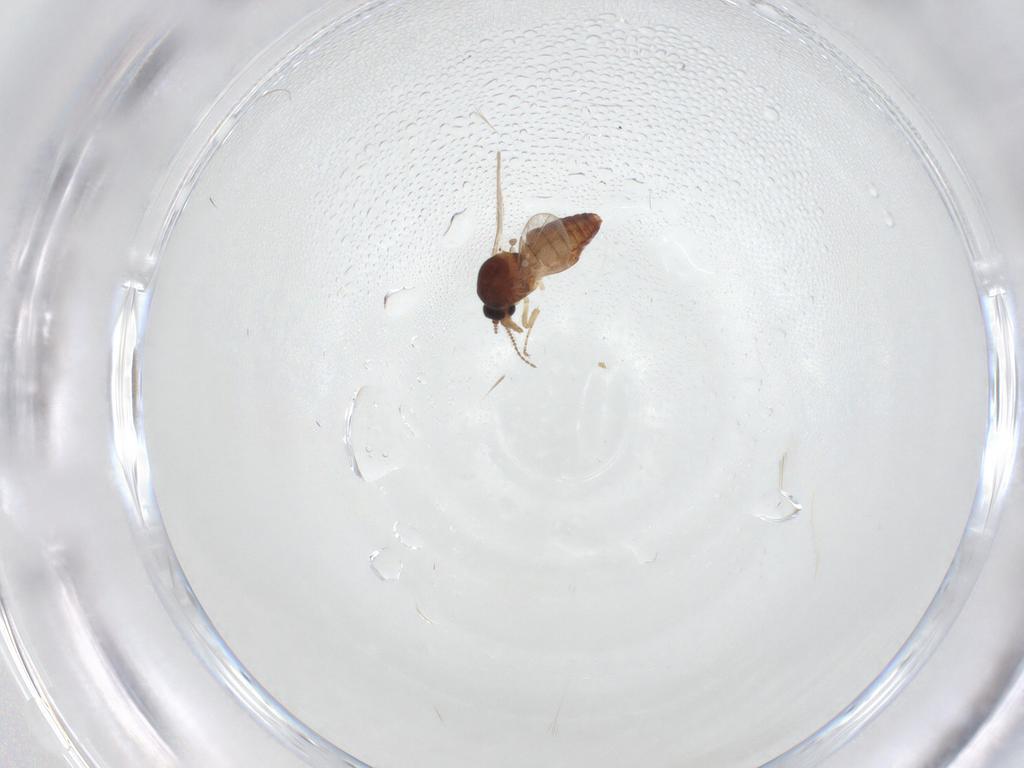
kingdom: Animalia
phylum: Arthropoda
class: Insecta
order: Diptera
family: Ceratopogonidae
